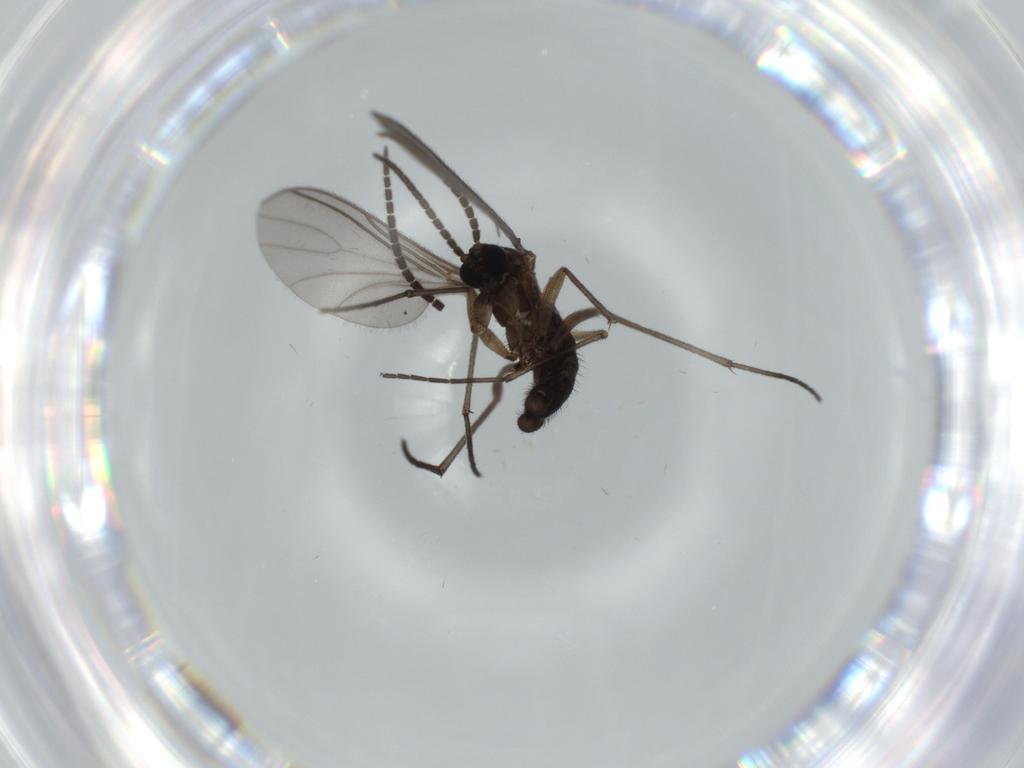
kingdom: Animalia
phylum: Arthropoda
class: Insecta
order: Diptera
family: Sciaridae
